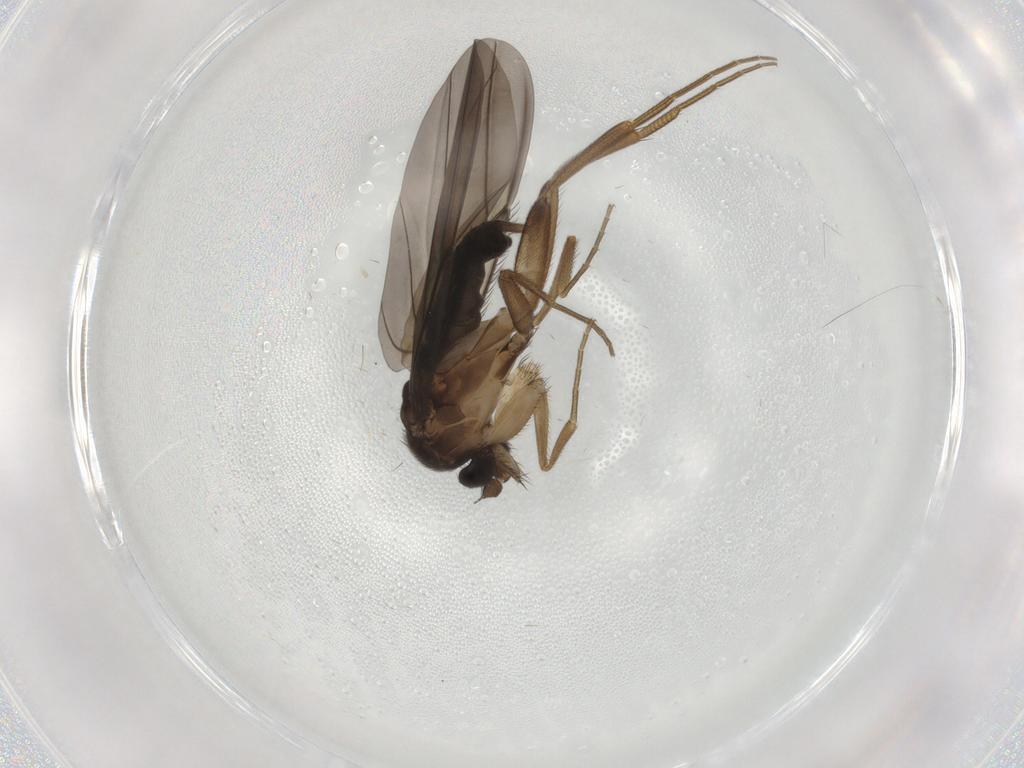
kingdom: Animalia
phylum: Arthropoda
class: Insecta
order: Diptera
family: Phoridae
